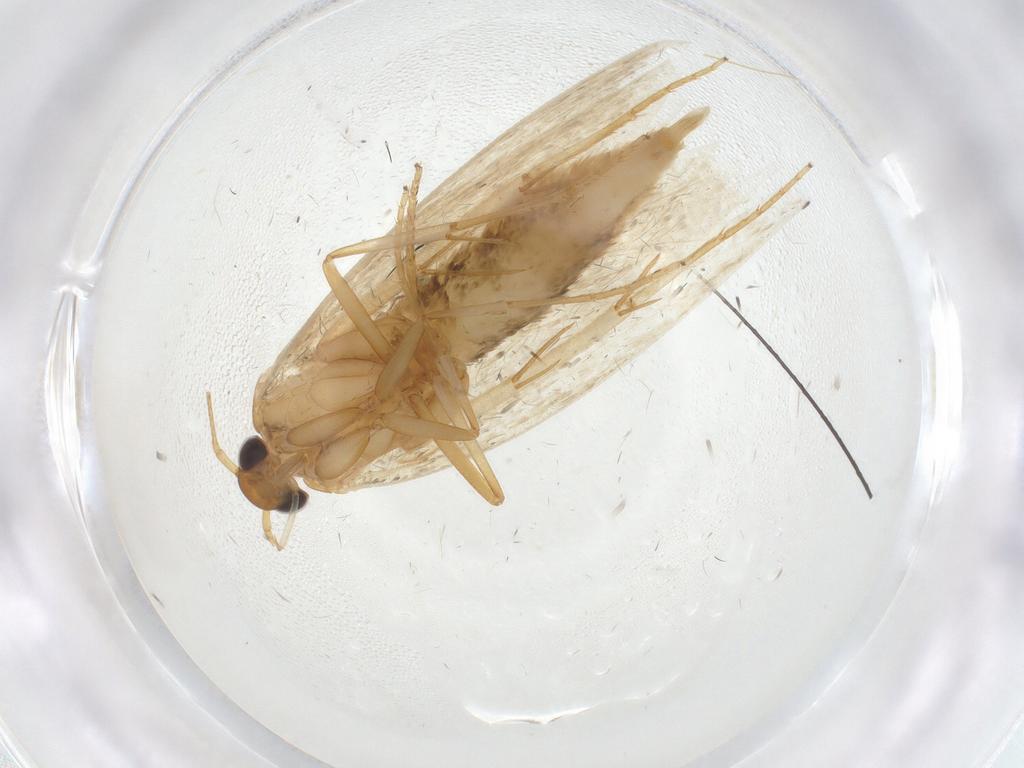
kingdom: Animalia
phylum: Arthropoda
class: Insecta
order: Lepidoptera
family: Oecophoridae
